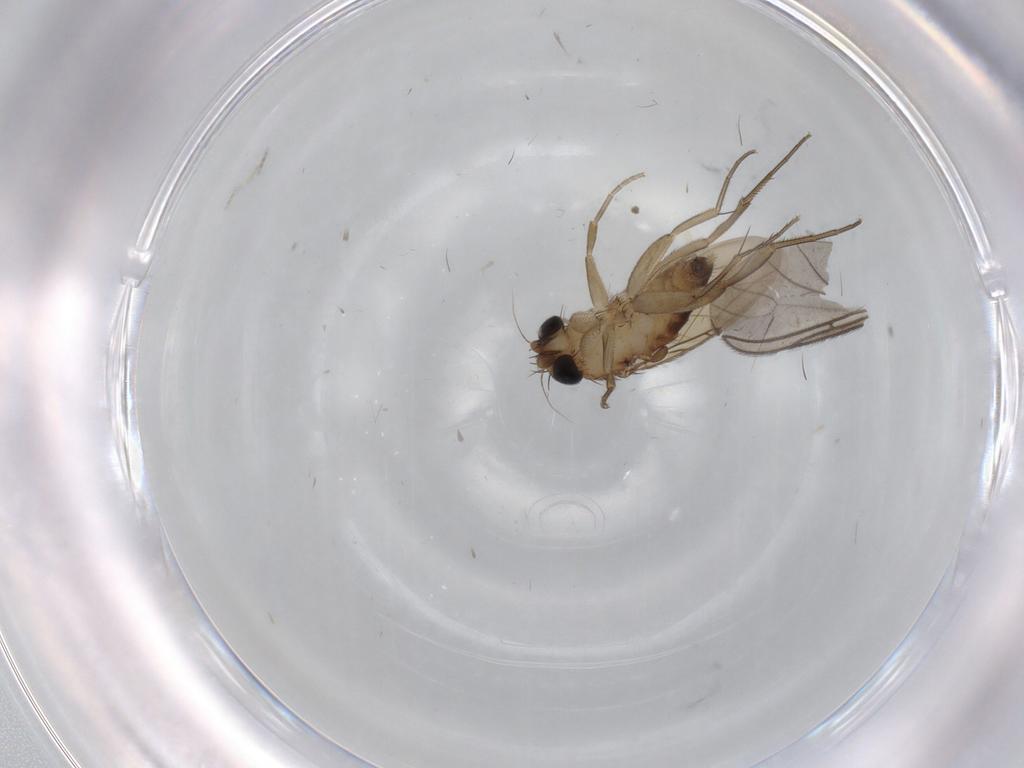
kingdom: Animalia
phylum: Arthropoda
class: Insecta
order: Diptera
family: Phoridae
